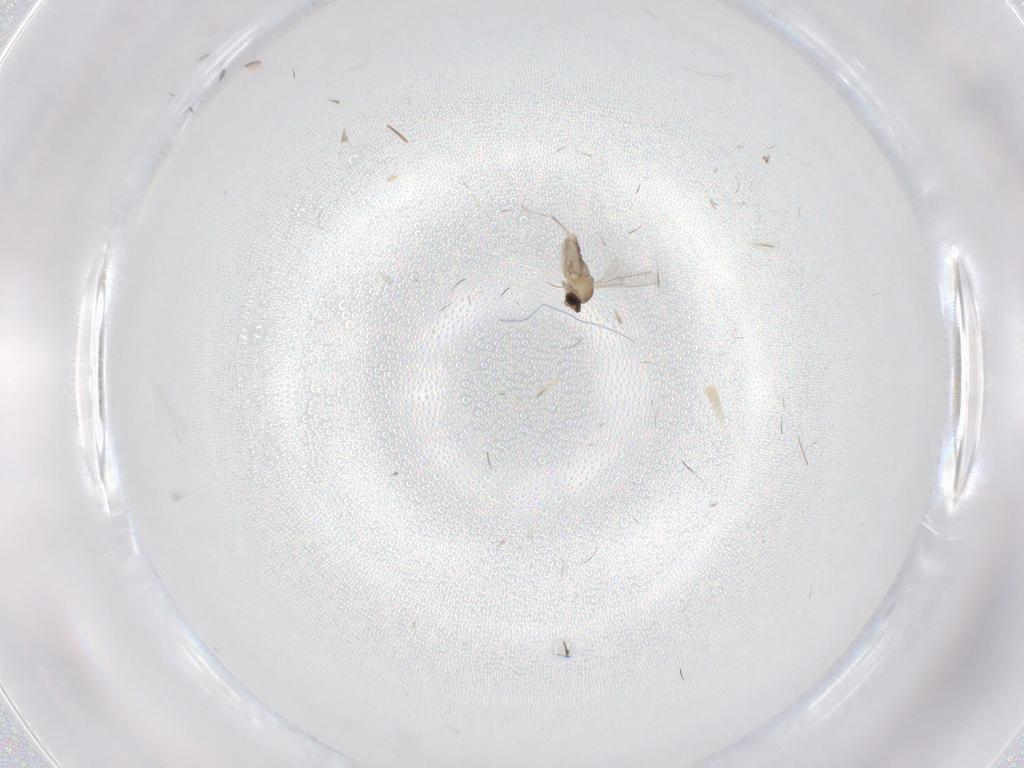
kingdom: Animalia
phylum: Arthropoda
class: Insecta
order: Diptera
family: Cecidomyiidae
